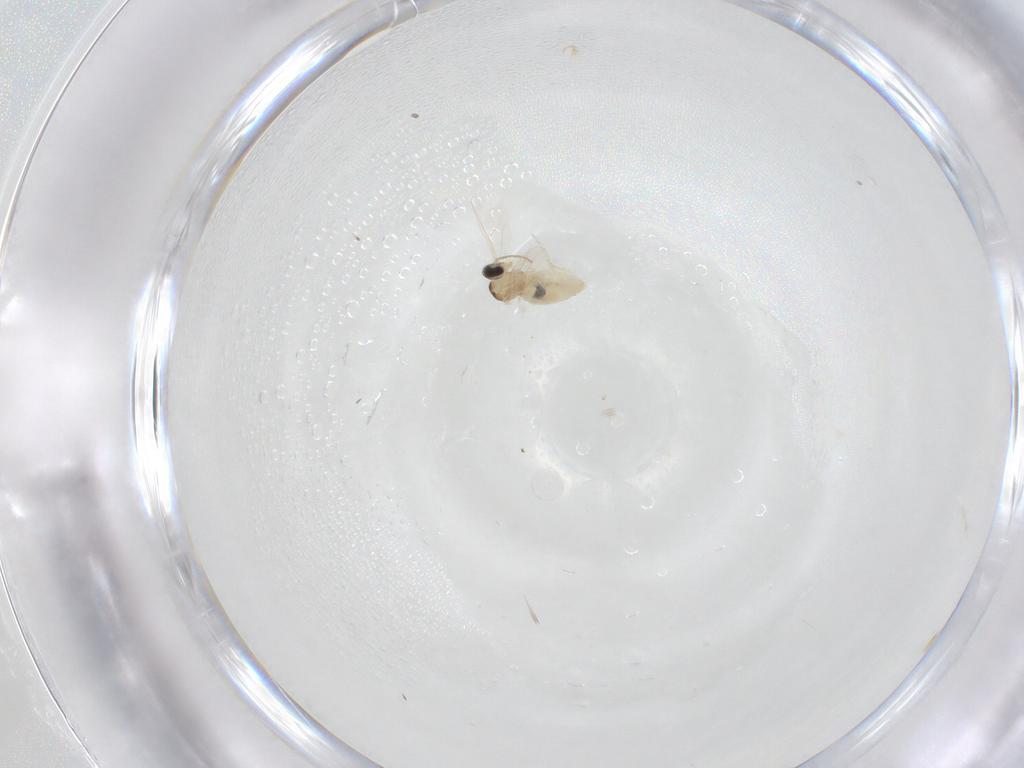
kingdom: Animalia
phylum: Arthropoda
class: Insecta
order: Diptera
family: Cecidomyiidae
